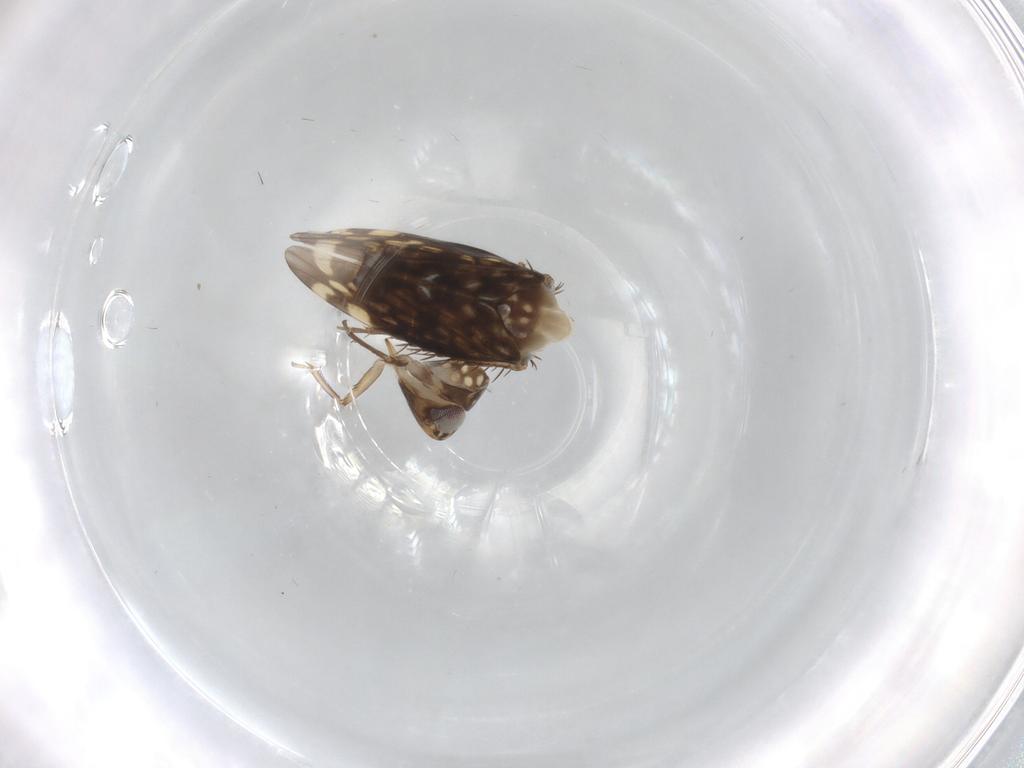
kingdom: Animalia
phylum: Arthropoda
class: Insecta
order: Hemiptera
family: Cicadellidae
